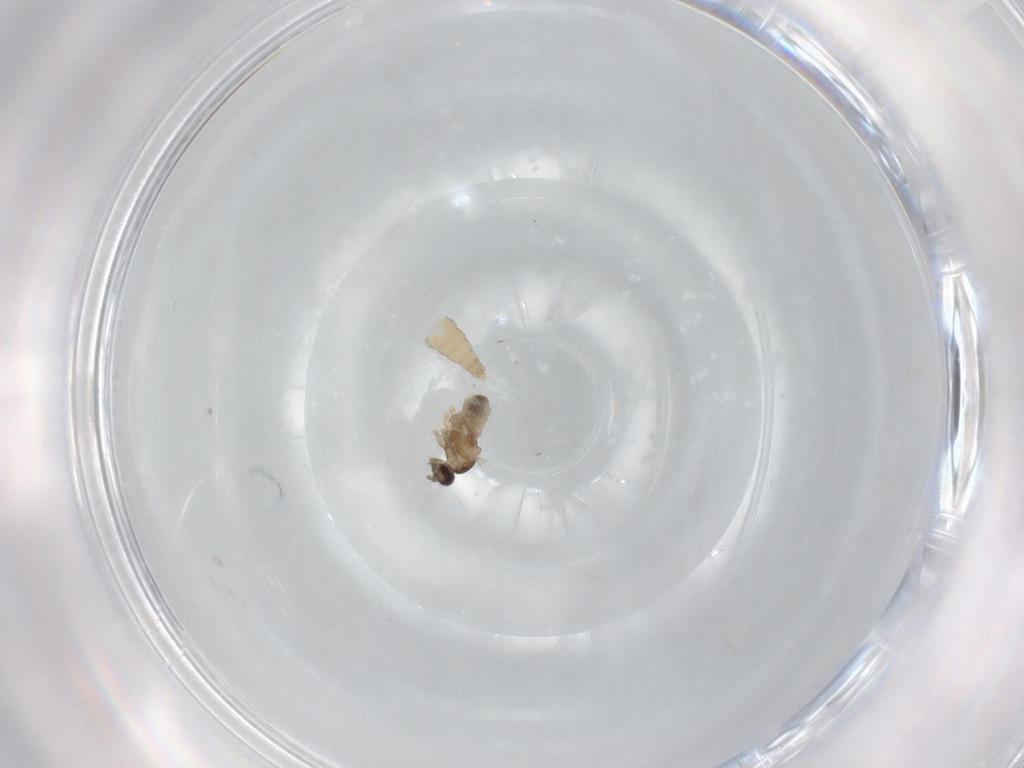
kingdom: Animalia
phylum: Arthropoda
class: Insecta
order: Diptera
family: Cecidomyiidae
